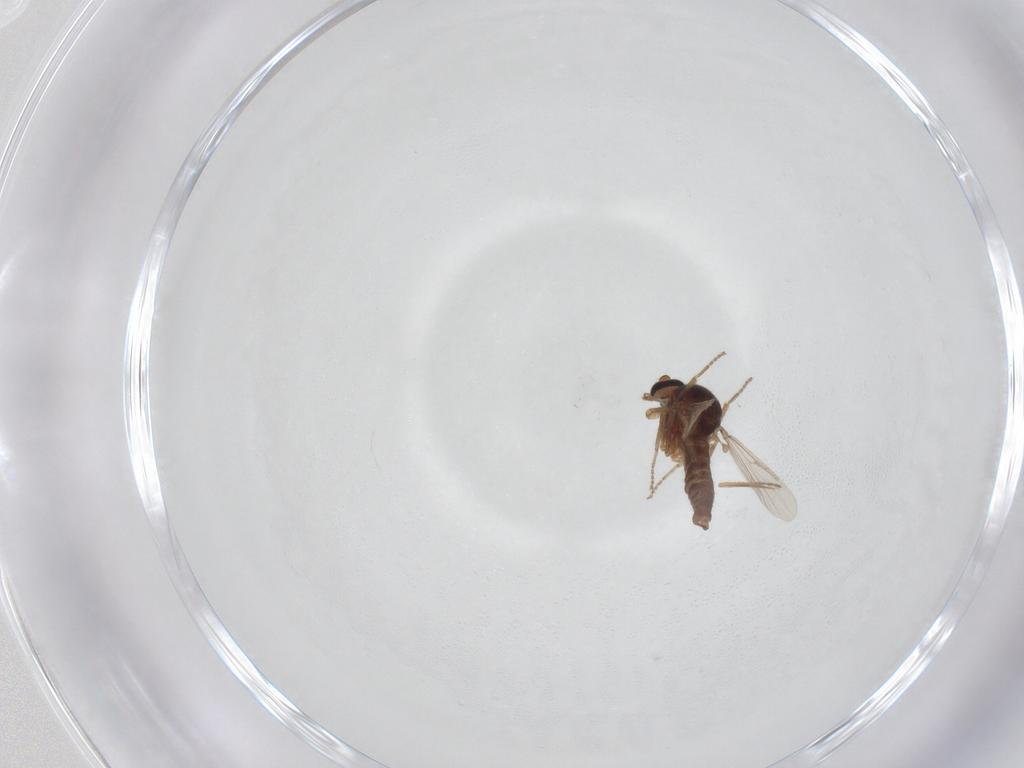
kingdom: Animalia
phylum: Arthropoda
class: Insecta
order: Diptera
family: Ceratopogonidae
